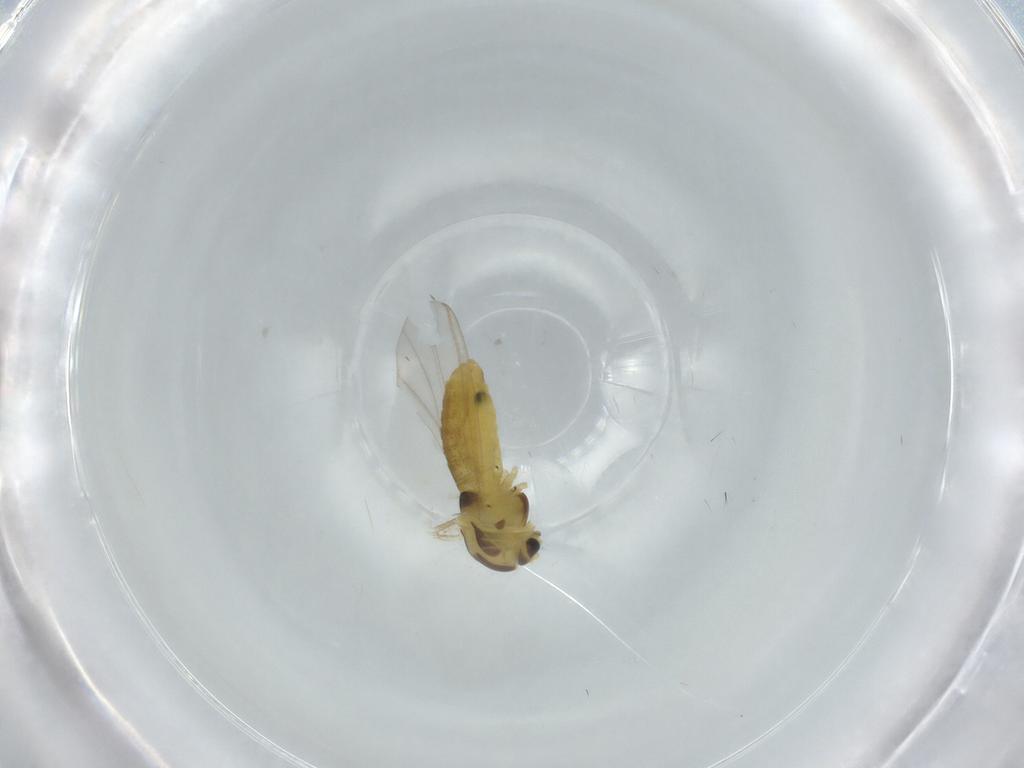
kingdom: Animalia
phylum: Arthropoda
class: Insecta
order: Diptera
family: Chironomidae
